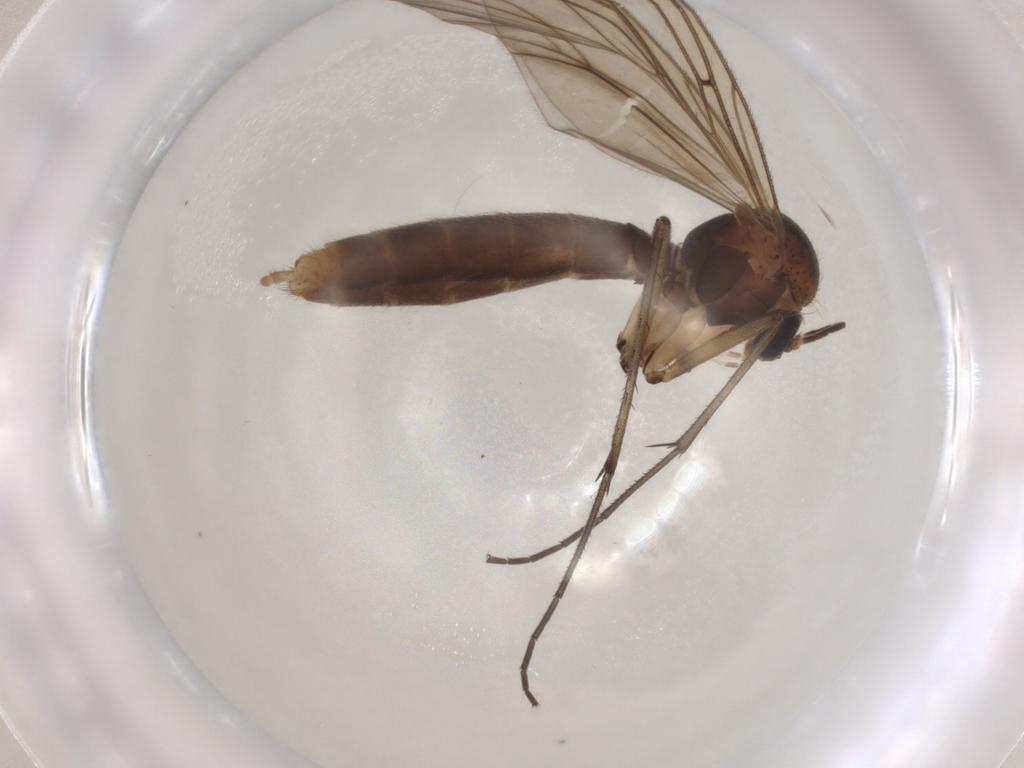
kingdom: Animalia
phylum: Arthropoda
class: Insecta
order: Diptera
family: Mycetophilidae
